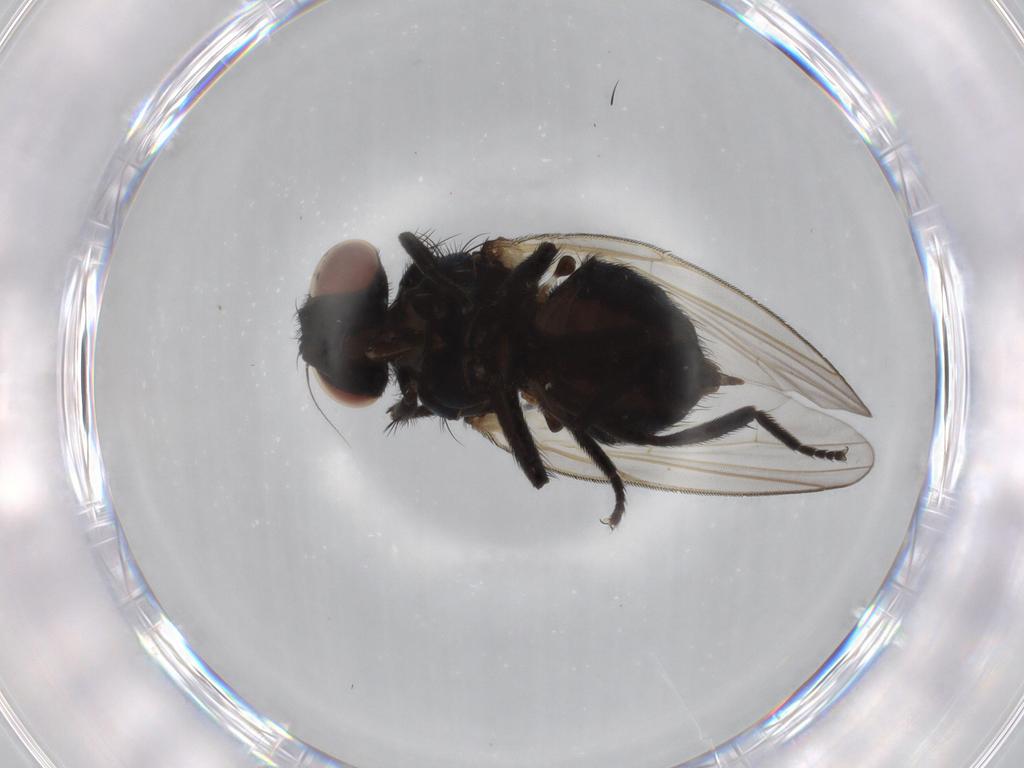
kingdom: Animalia
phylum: Arthropoda
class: Insecta
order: Diptera
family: Lonchaeidae
